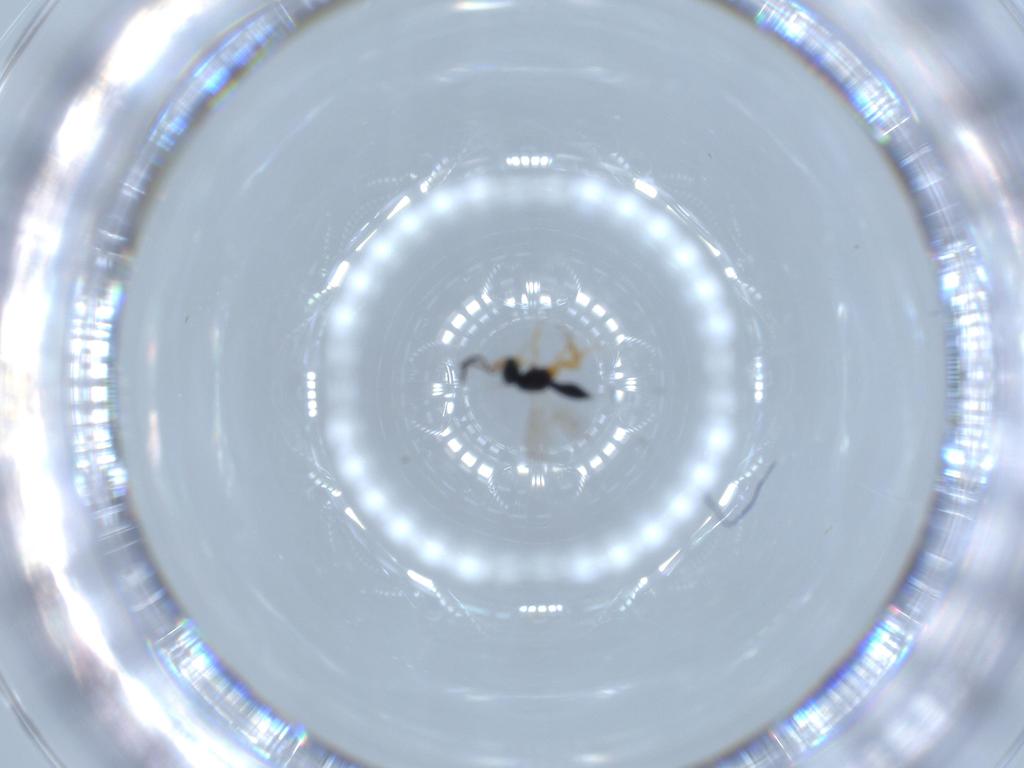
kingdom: Animalia
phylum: Arthropoda
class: Insecta
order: Hymenoptera
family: Scelionidae
